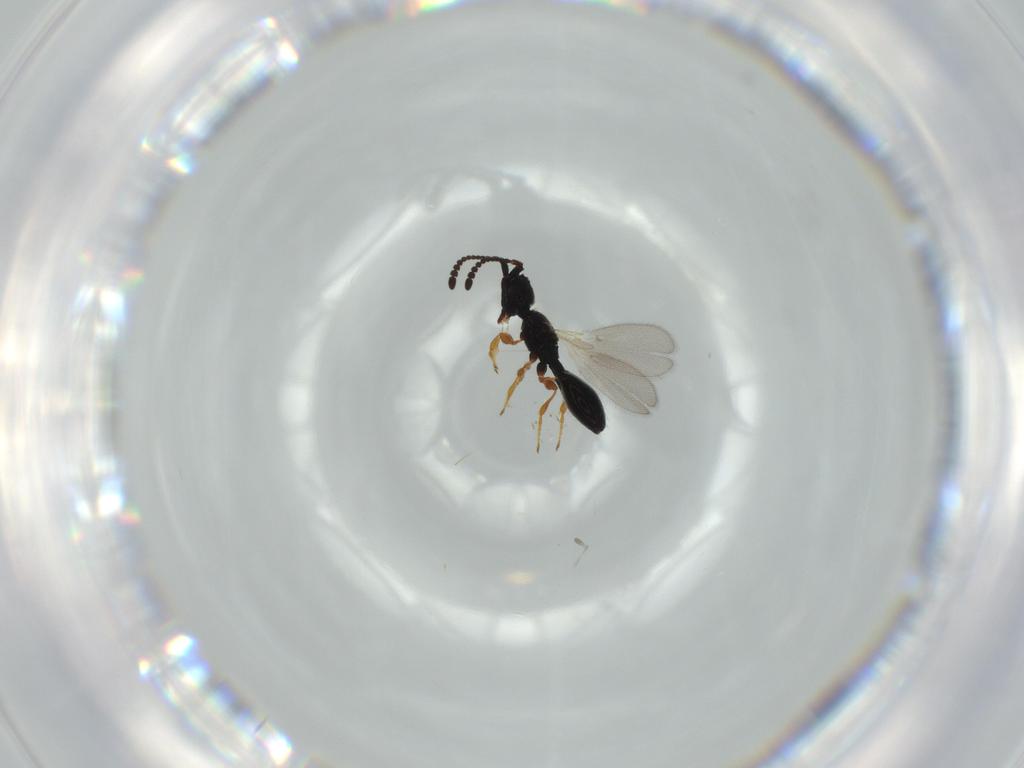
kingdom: Animalia
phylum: Arthropoda
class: Insecta
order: Hymenoptera
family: Diapriidae
